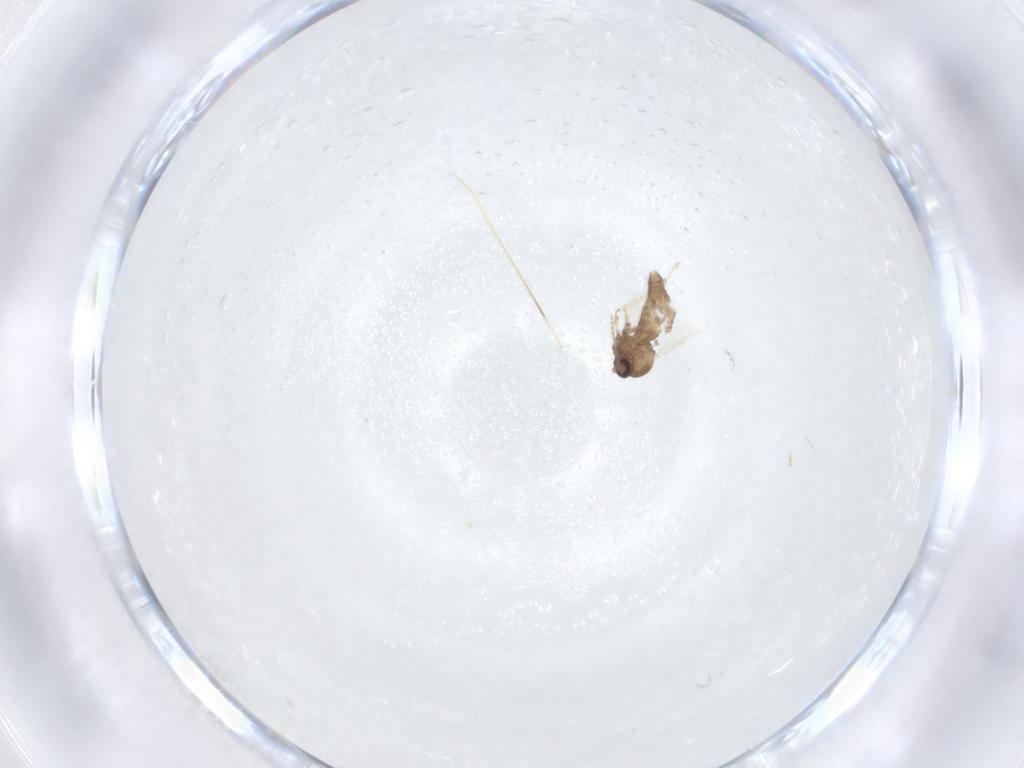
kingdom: Animalia
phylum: Arthropoda
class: Insecta
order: Diptera
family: Ceratopogonidae
